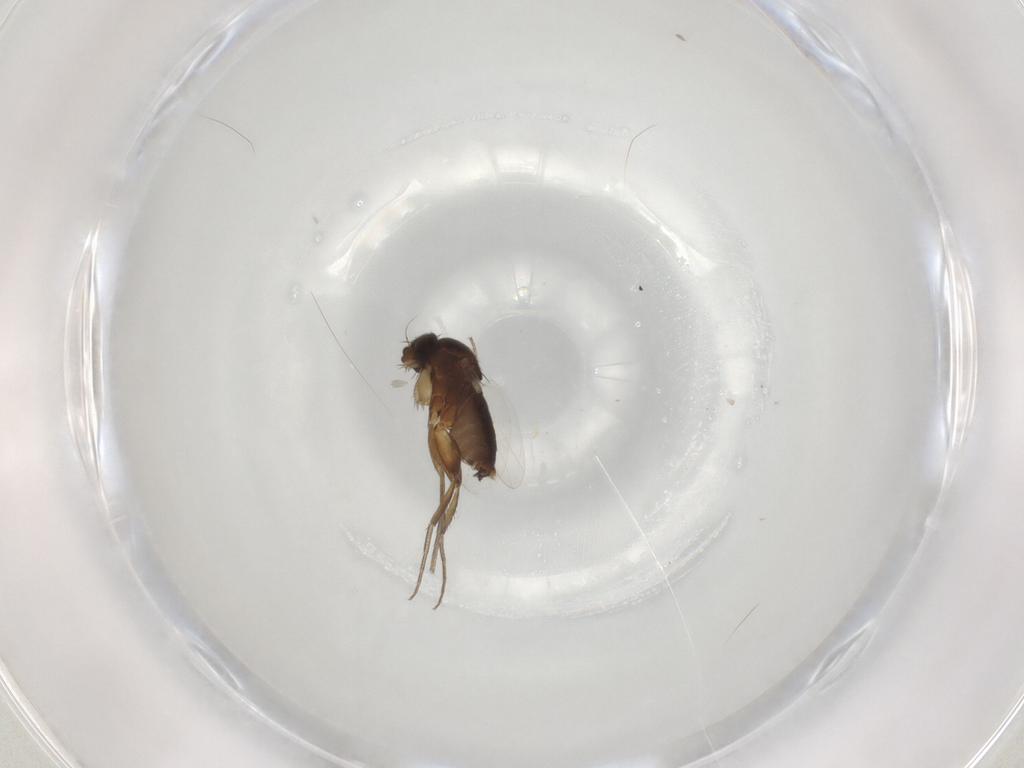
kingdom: Animalia
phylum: Arthropoda
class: Insecta
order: Diptera
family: Phoridae
